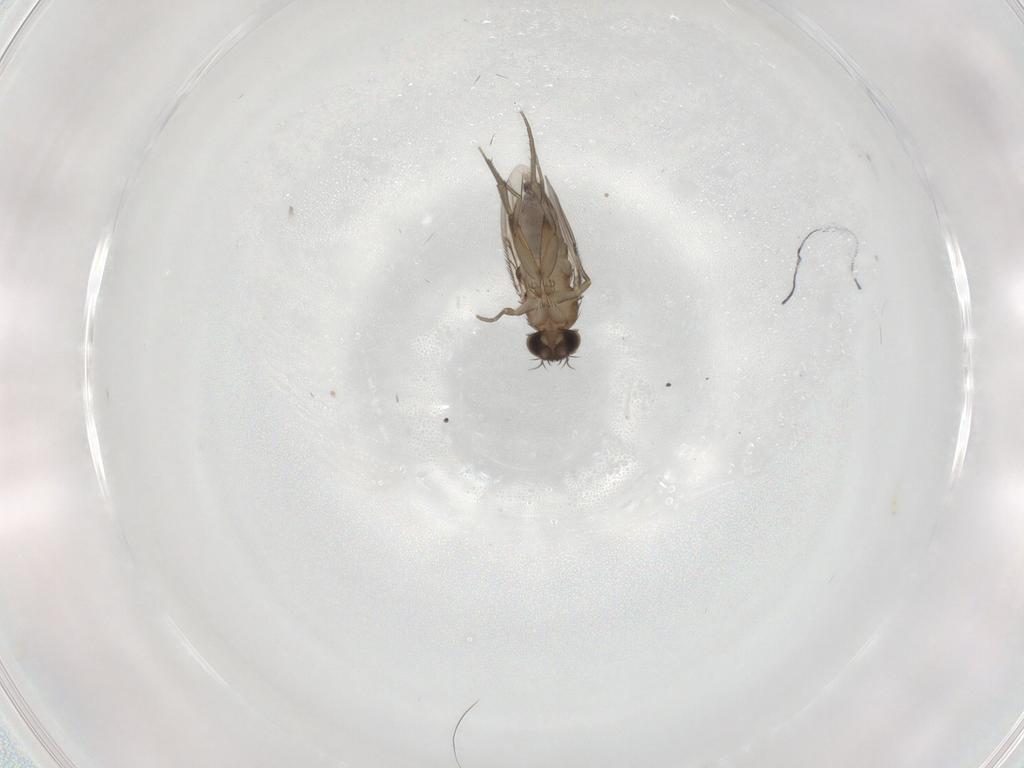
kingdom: Animalia
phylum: Arthropoda
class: Insecta
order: Diptera
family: Phoridae
